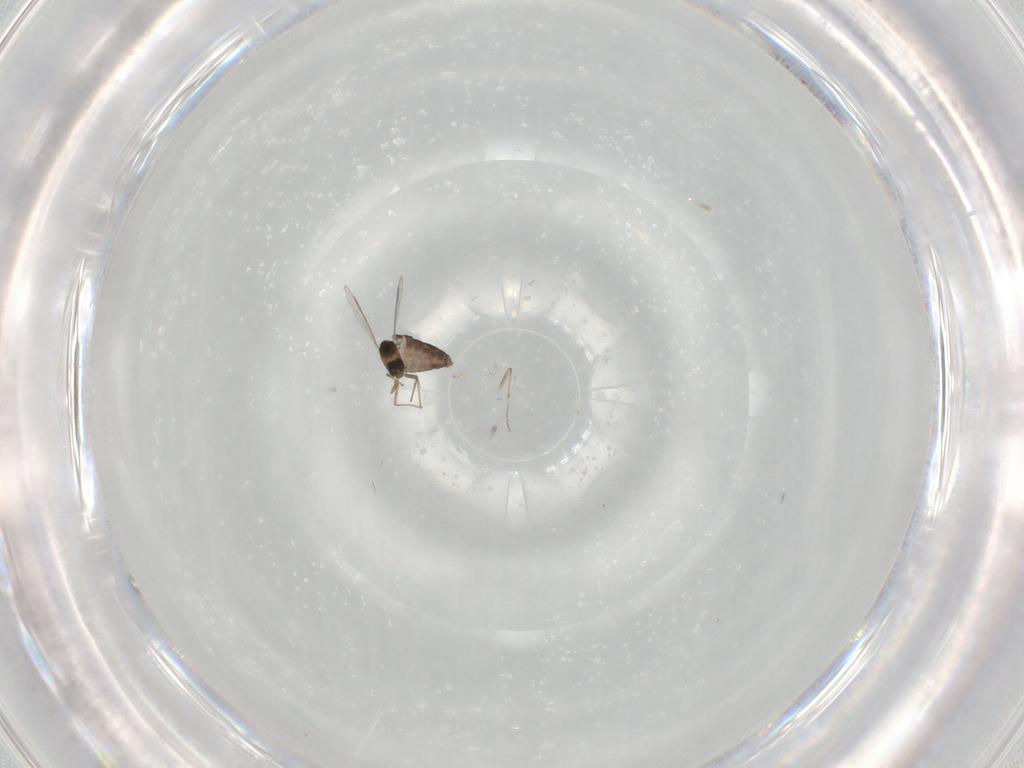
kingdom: Animalia
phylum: Arthropoda
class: Insecta
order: Diptera
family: Chironomidae
